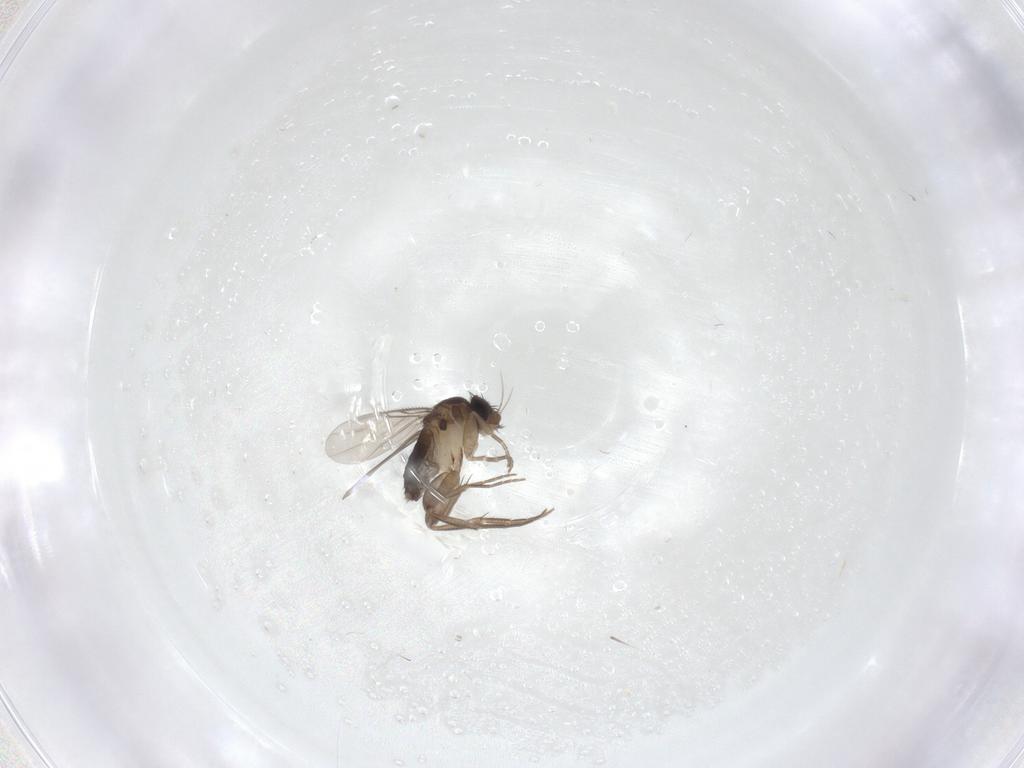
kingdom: Animalia
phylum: Arthropoda
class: Insecta
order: Diptera
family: Phoridae
